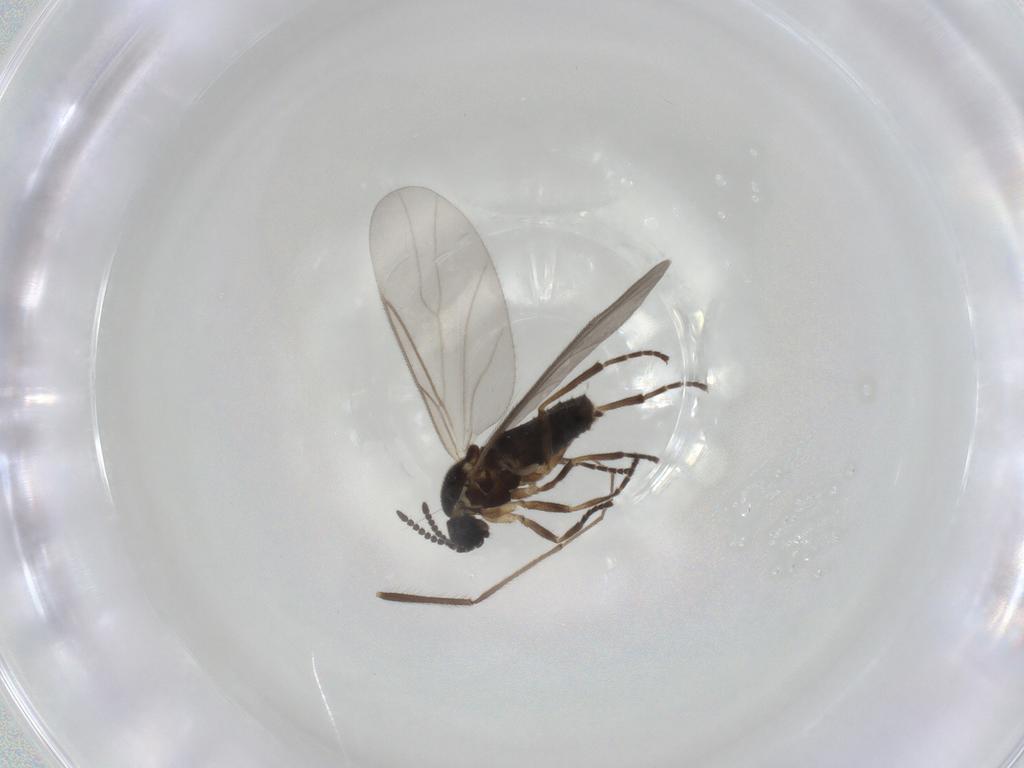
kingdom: Animalia
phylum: Arthropoda
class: Insecta
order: Diptera
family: Scatopsidae
